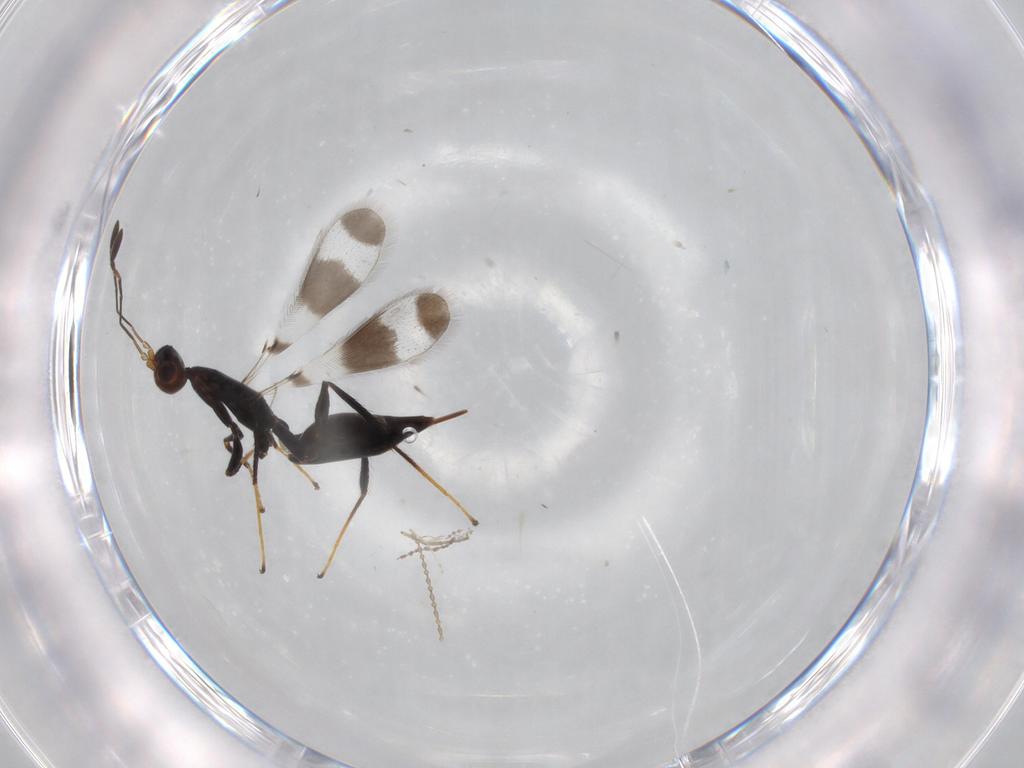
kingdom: Animalia
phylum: Arthropoda
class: Insecta
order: Hymenoptera
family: Mymaridae
